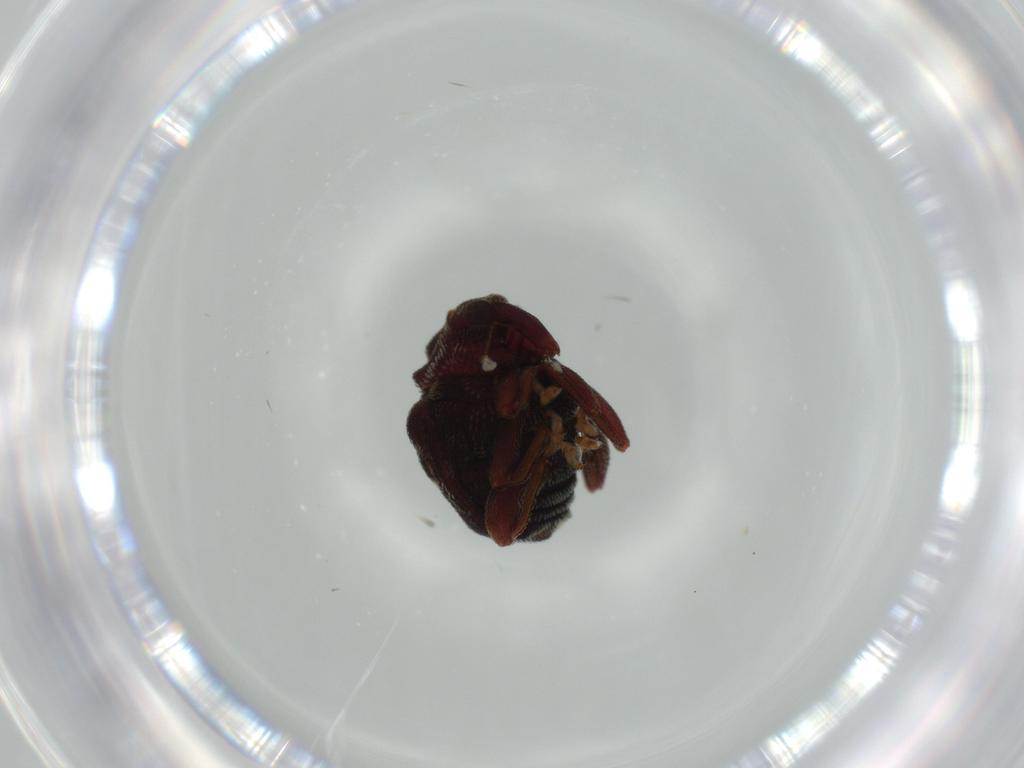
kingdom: Animalia
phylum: Arthropoda
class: Insecta
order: Coleoptera
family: Curculionidae
